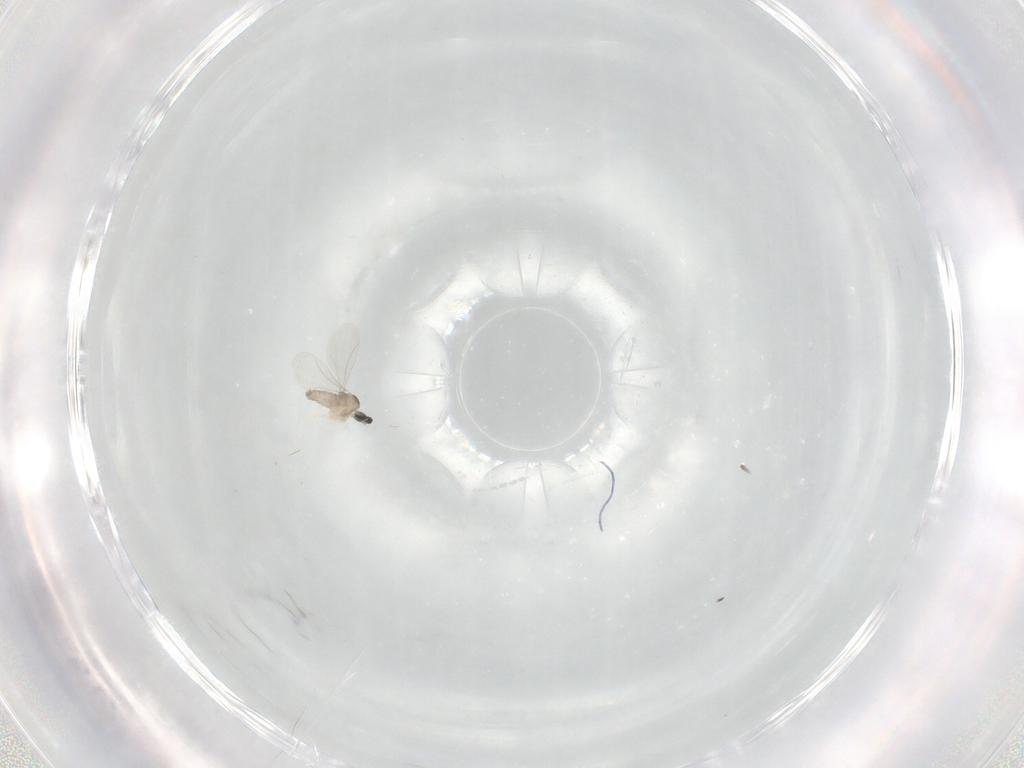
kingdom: Animalia
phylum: Arthropoda
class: Insecta
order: Diptera
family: Cecidomyiidae
